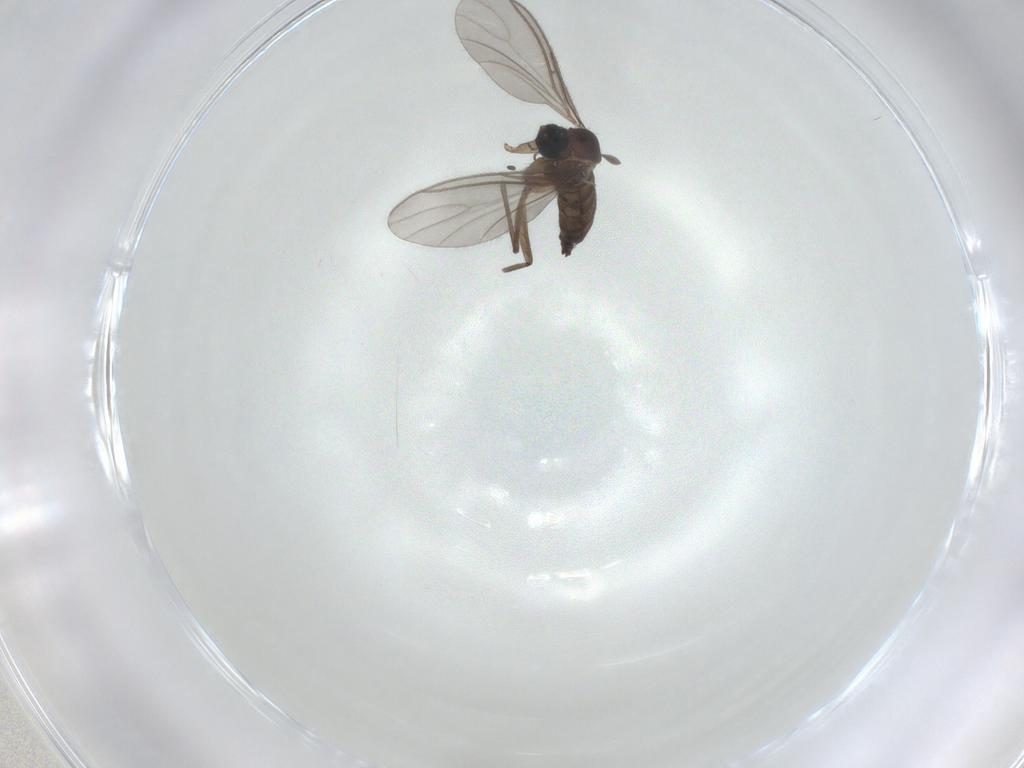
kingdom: Animalia
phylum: Arthropoda
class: Insecta
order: Diptera
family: Sciaridae
